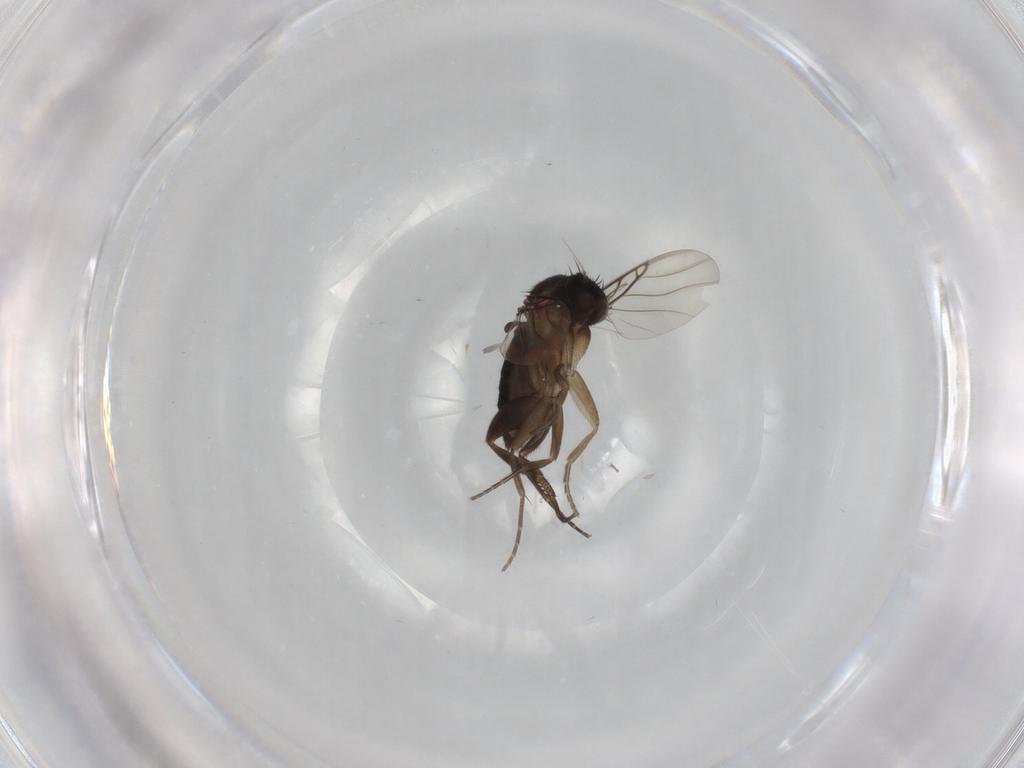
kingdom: Animalia
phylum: Arthropoda
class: Insecta
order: Diptera
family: Phoridae
